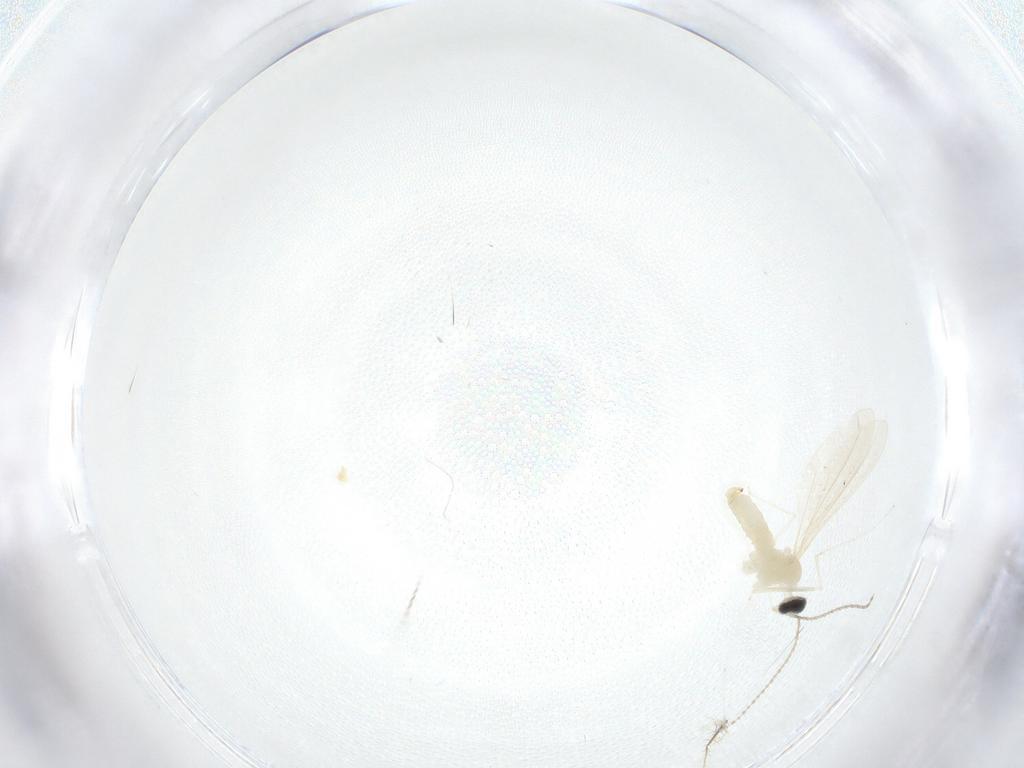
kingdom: Animalia
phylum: Arthropoda
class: Insecta
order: Diptera
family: Cecidomyiidae
